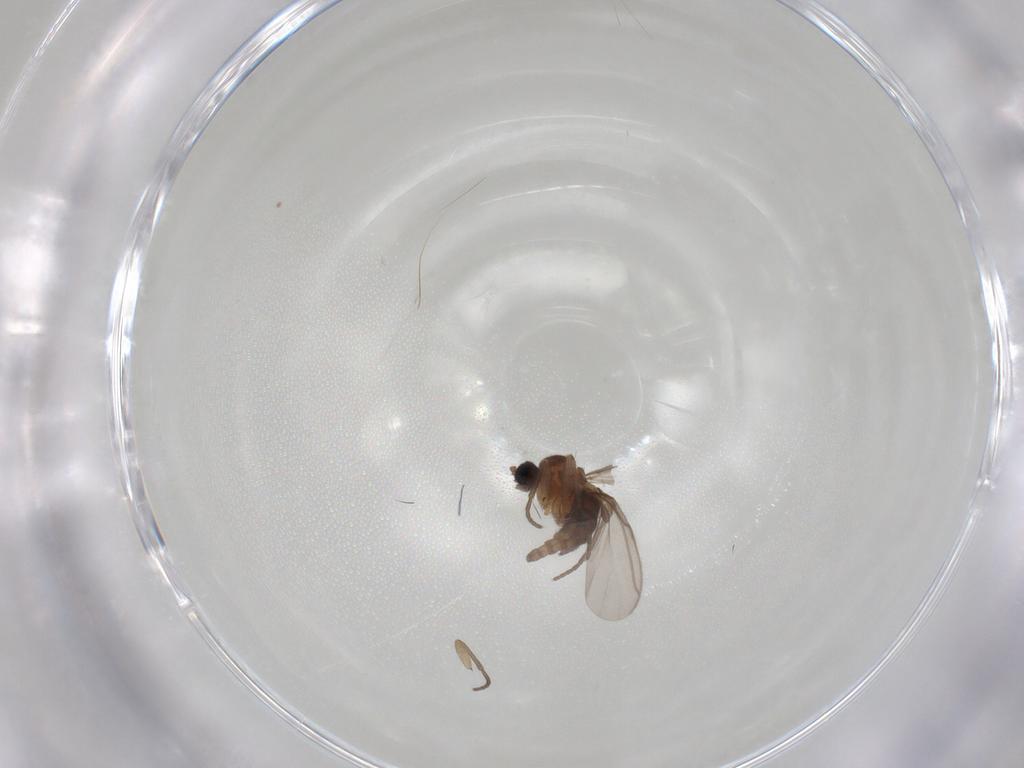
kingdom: Animalia
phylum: Arthropoda
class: Insecta
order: Diptera
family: Sciaridae
